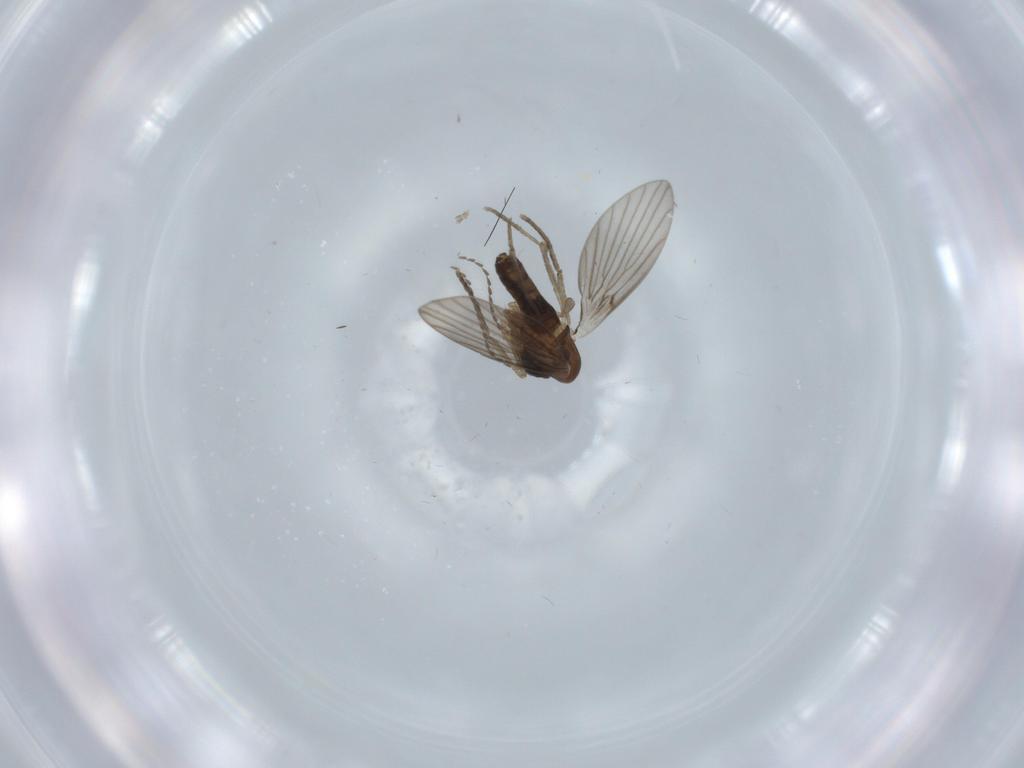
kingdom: Animalia
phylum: Arthropoda
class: Insecta
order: Diptera
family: Psychodidae
